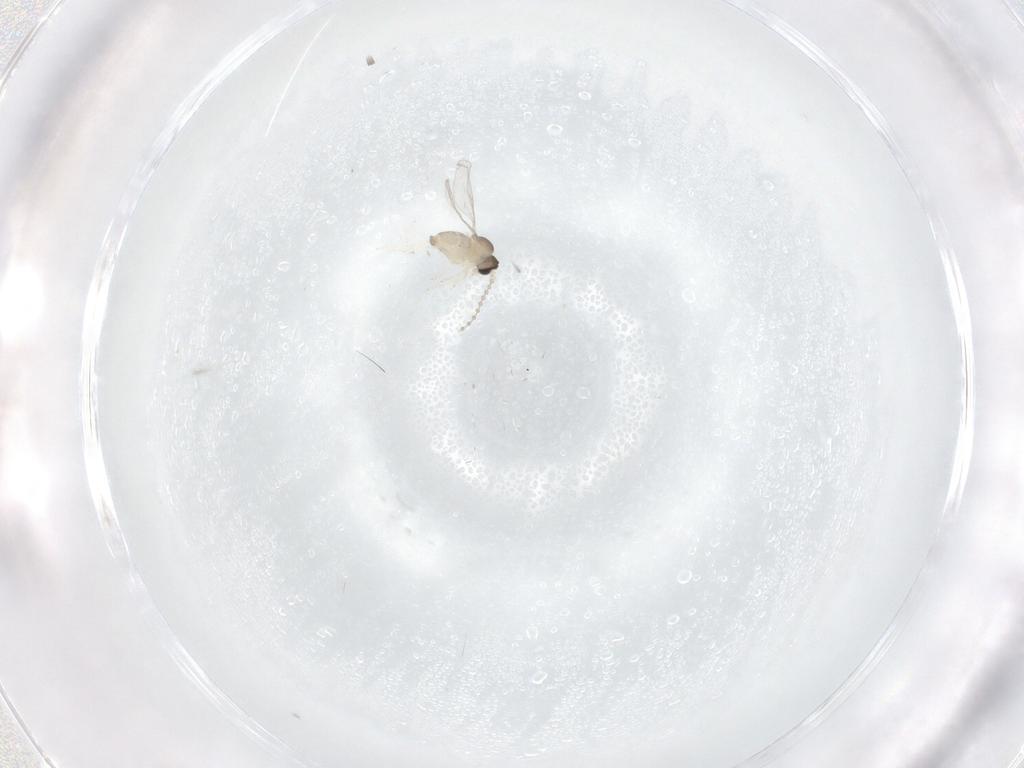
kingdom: Animalia
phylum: Arthropoda
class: Insecta
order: Diptera
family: Cecidomyiidae
